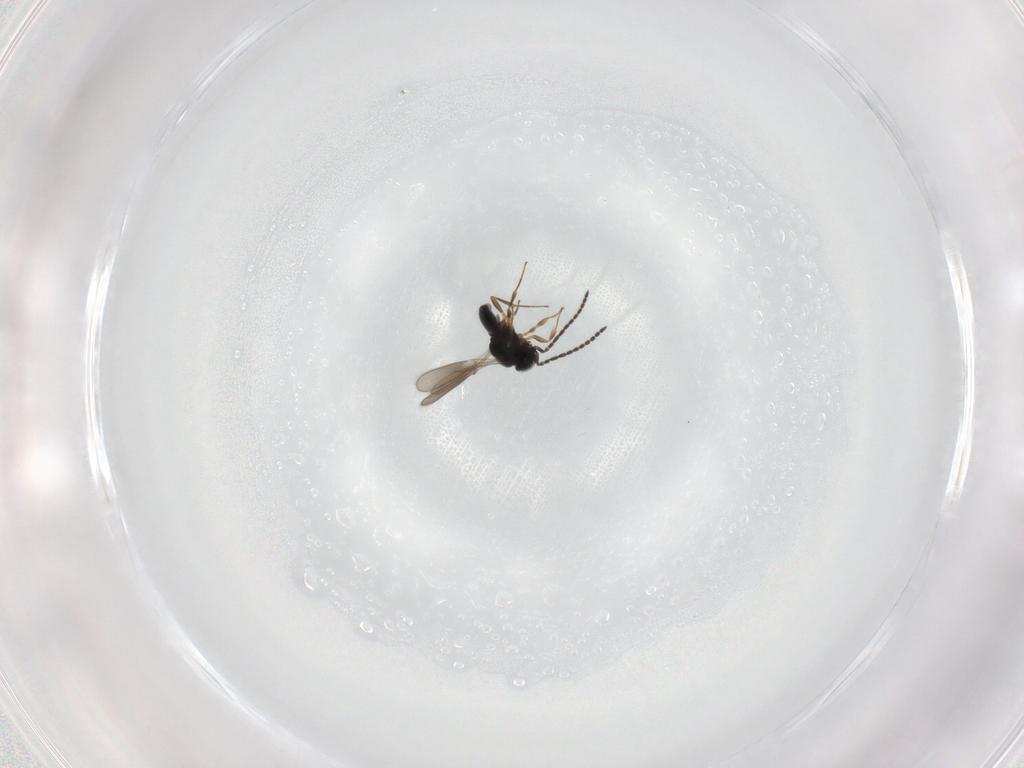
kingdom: Animalia
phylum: Arthropoda
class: Insecta
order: Hymenoptera
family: Scelionidae
